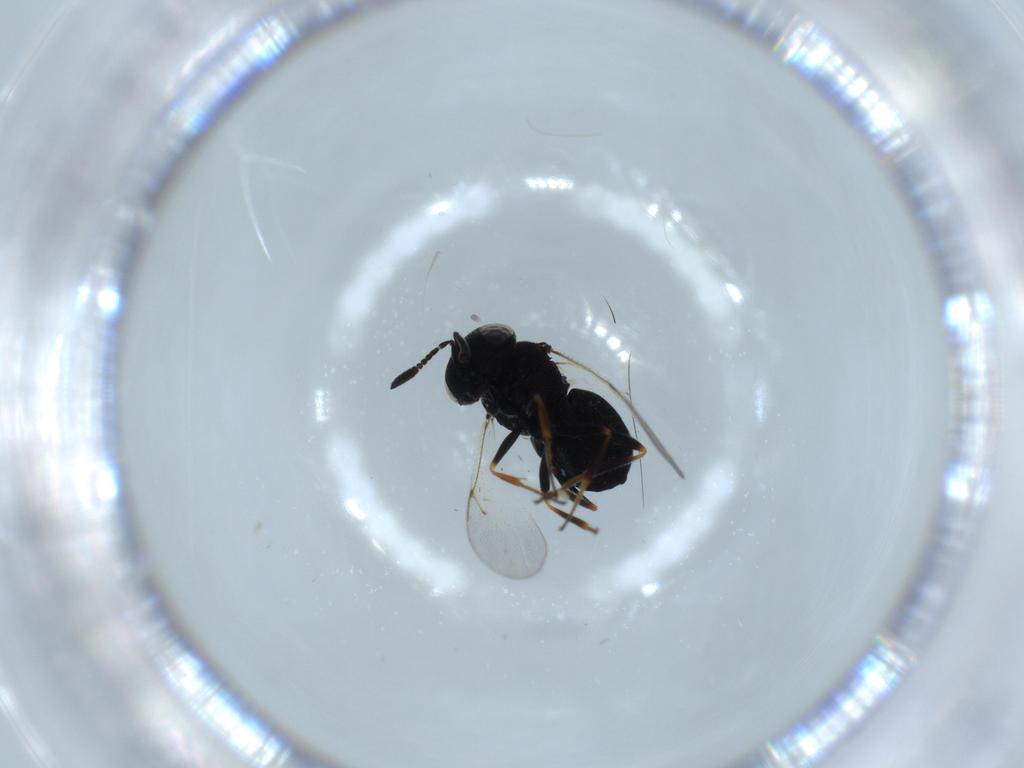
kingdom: Animalia
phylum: Arthropoda
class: Insecta
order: Hymenoptera
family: Scelionidae
